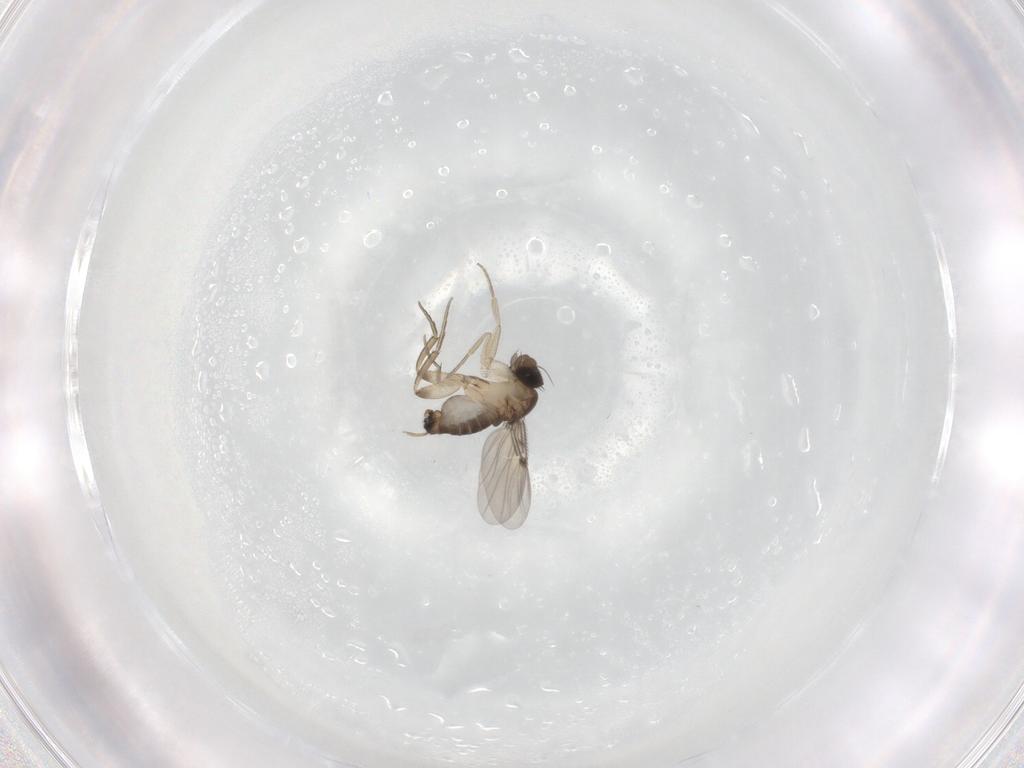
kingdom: Animalia
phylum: Arthropoda
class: Insecta
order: Diptera
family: Phoridae
